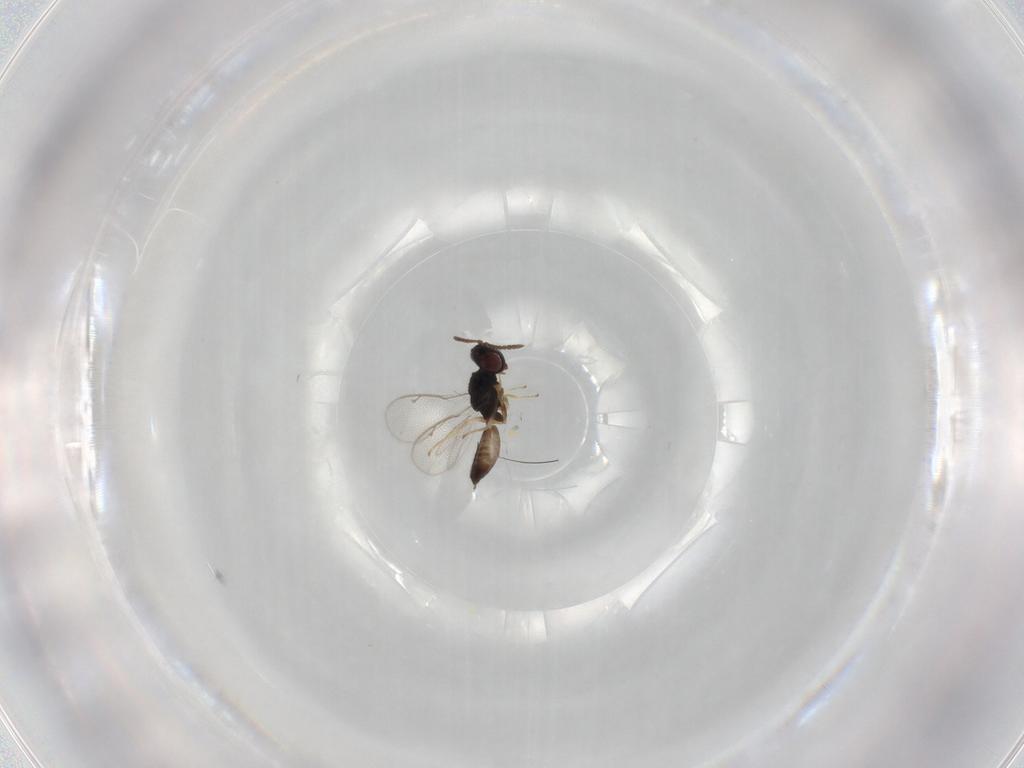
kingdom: Animalia
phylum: Arthropoda
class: Insecta
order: Hymenoptera
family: Pteromalidae
